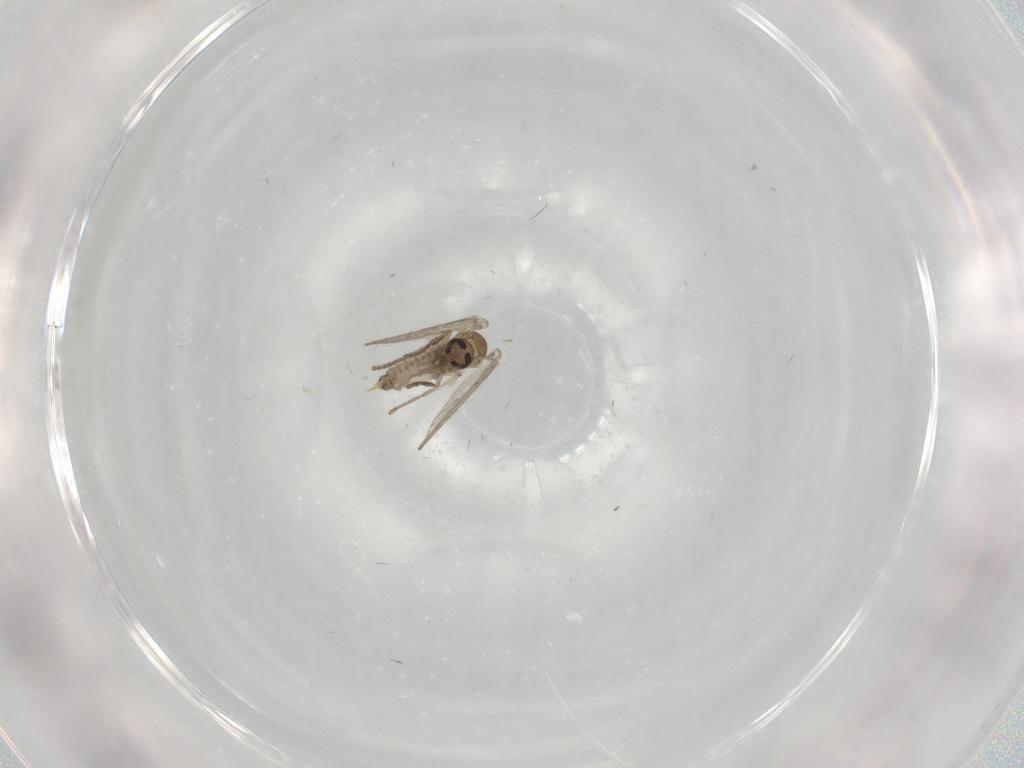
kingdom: Animalia
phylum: Arthropoda
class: Insecta
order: Diptera
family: Psychodidae
